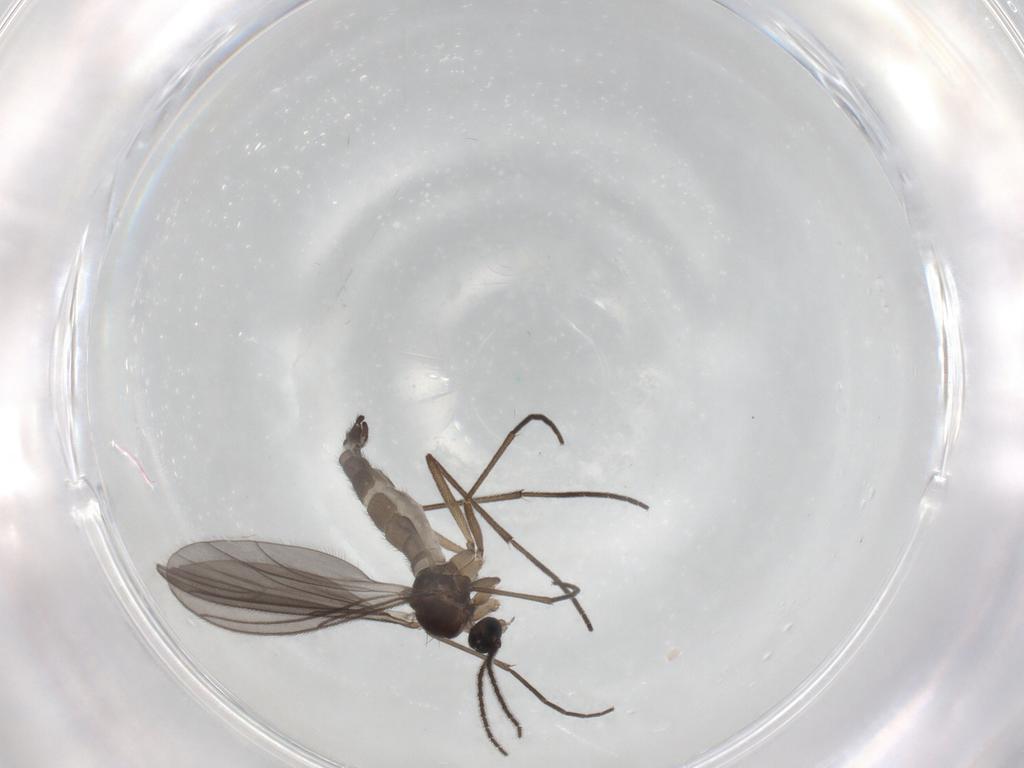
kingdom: Animalia
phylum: Arthropoda
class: Insecta
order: Diptera
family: Sciaridae
